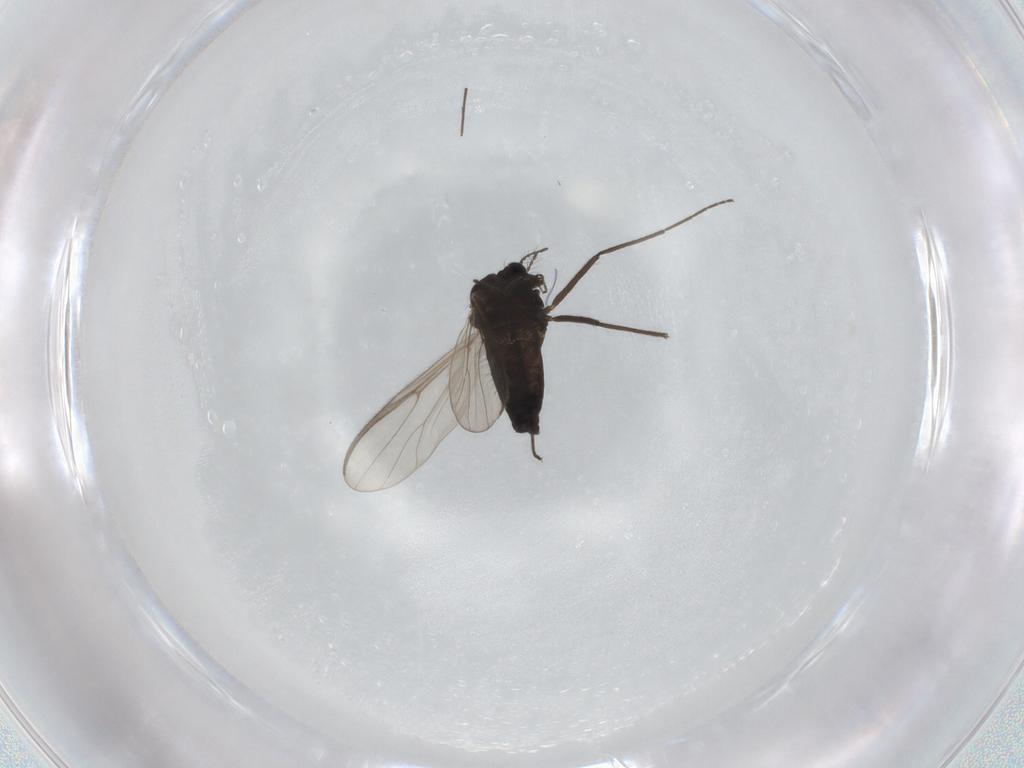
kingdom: Animalia
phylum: Arthropoda
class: Insecta
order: Diptera
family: Chironomidae
